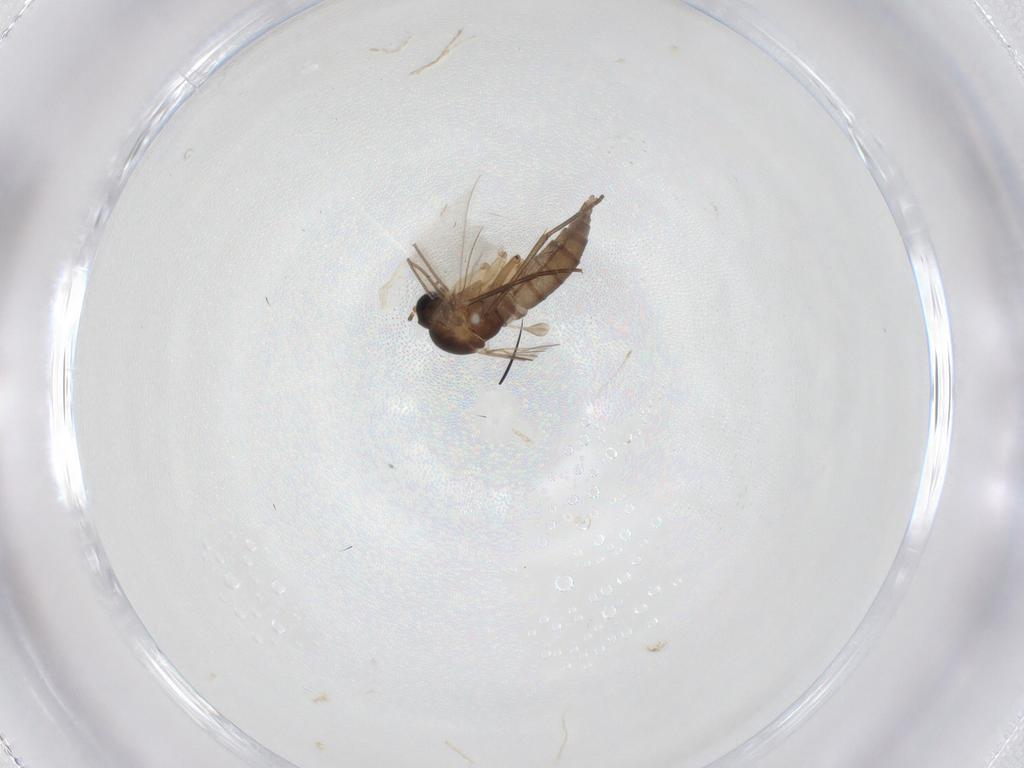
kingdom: Animalia
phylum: Arthropoda
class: Insecta
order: Diptera
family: Sciaridae
